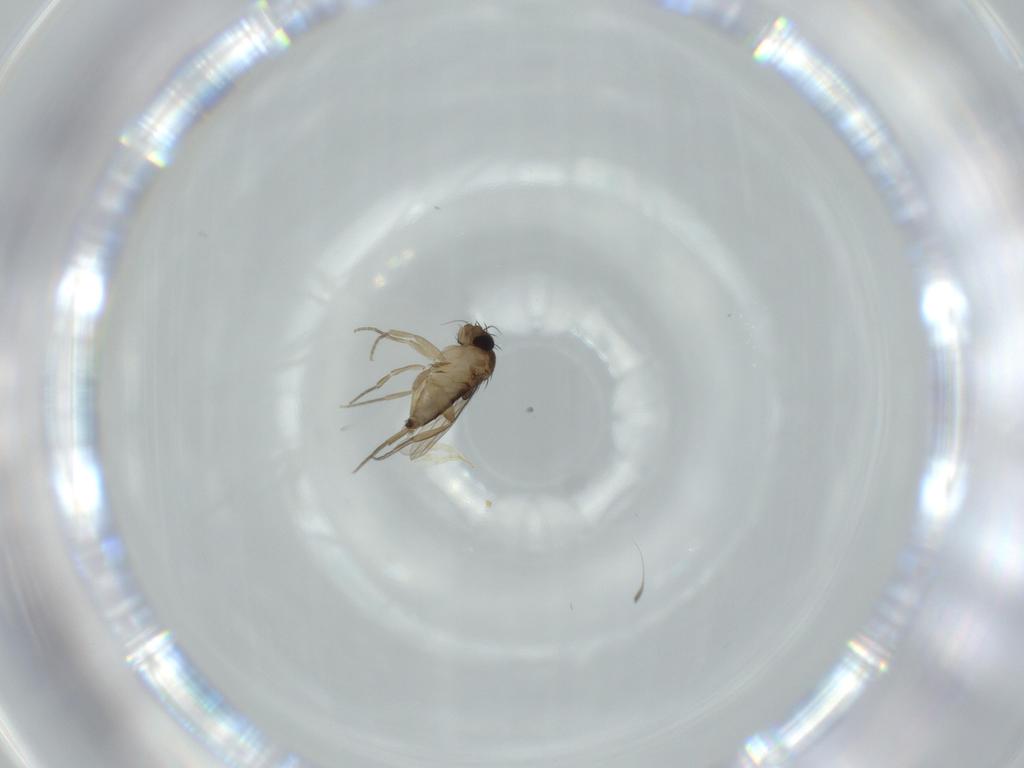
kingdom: Animalia
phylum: Arthropoda
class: Insecta
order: Diptera
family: Phoridae
